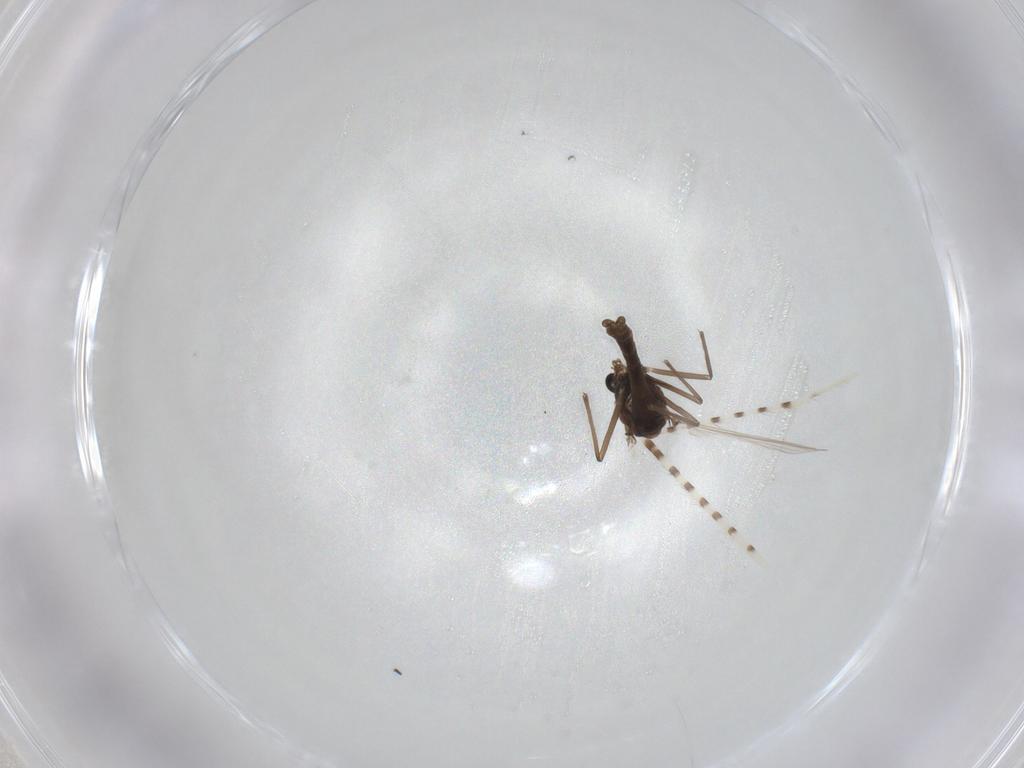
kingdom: Animalia
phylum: Arthropoda
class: Insecta
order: Diptera
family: Chironomidae
